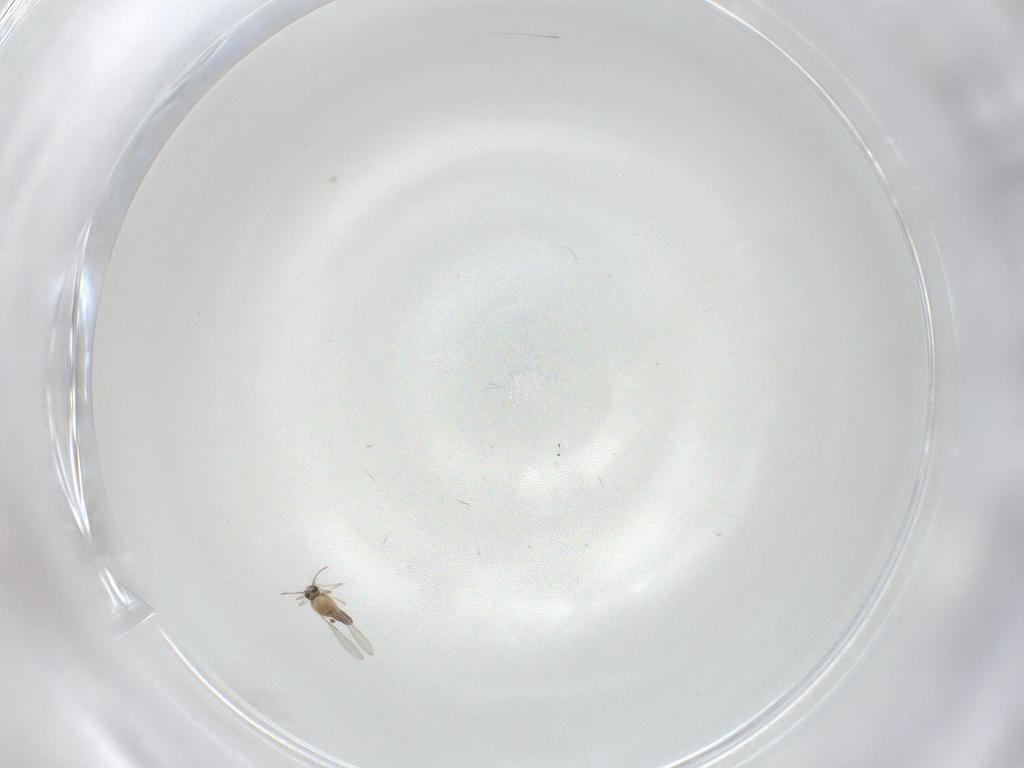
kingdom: Animalia
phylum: Arthropoda
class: Insecta
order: Diptera
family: Ceratopogonidae
